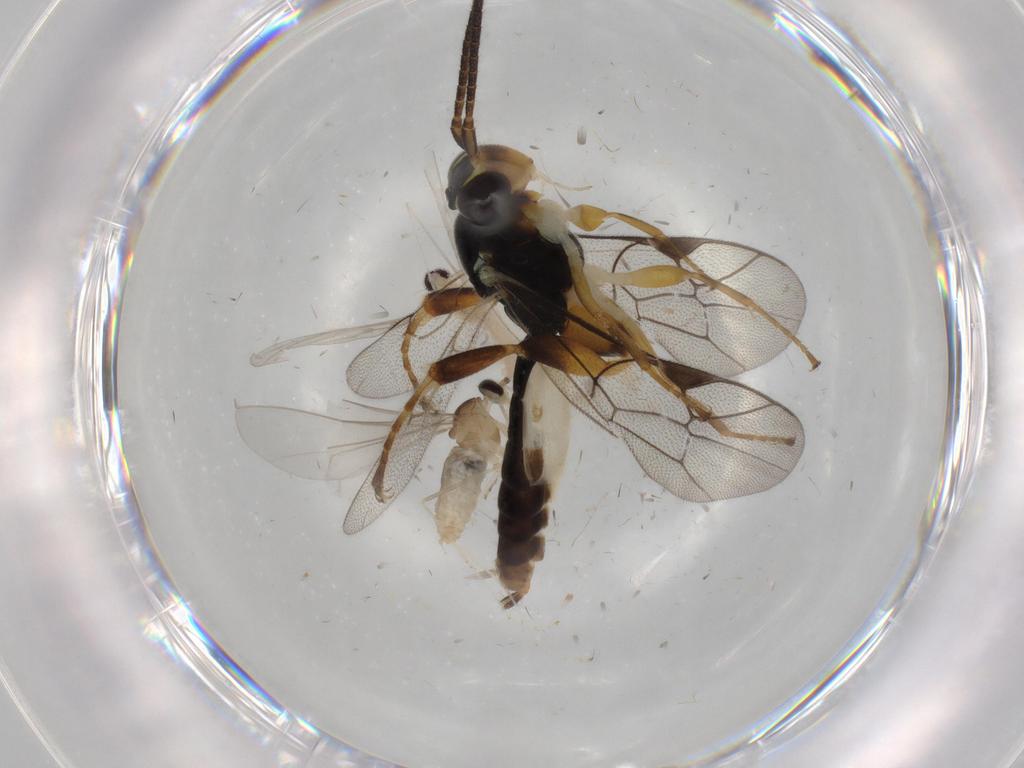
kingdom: Animalia
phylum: Arthropoda
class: Insecta
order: Diptera
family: Cecidomyiidae
